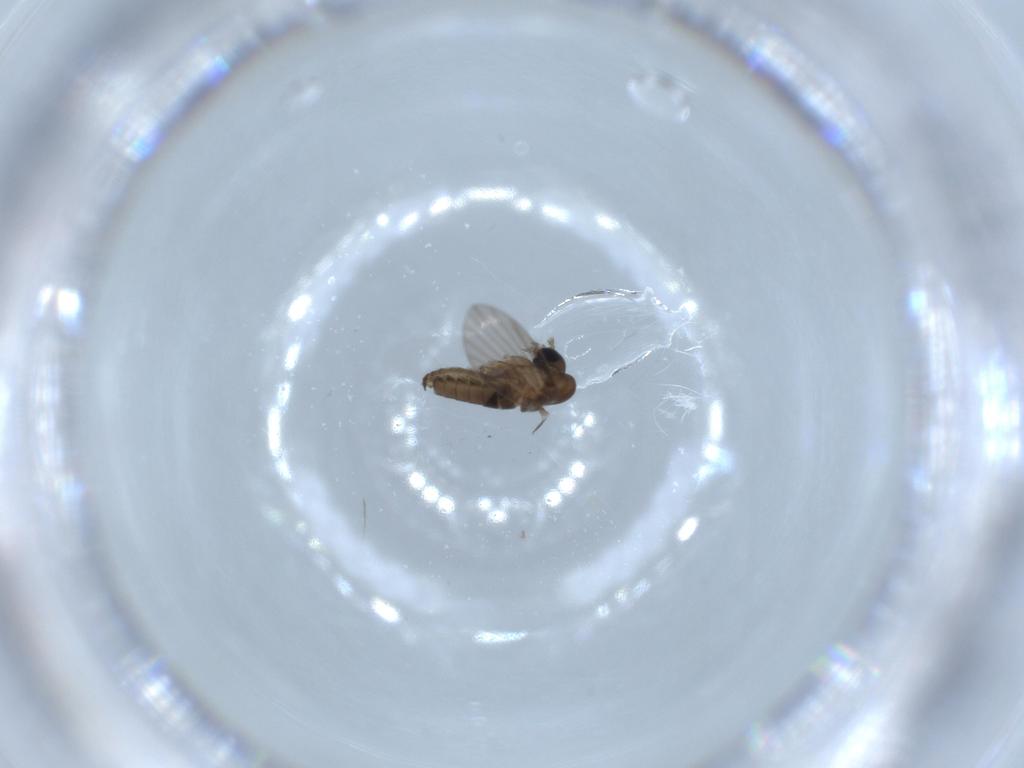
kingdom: Animalia
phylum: Arthropoda
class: Insecta
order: Diptera
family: Psychodidae
